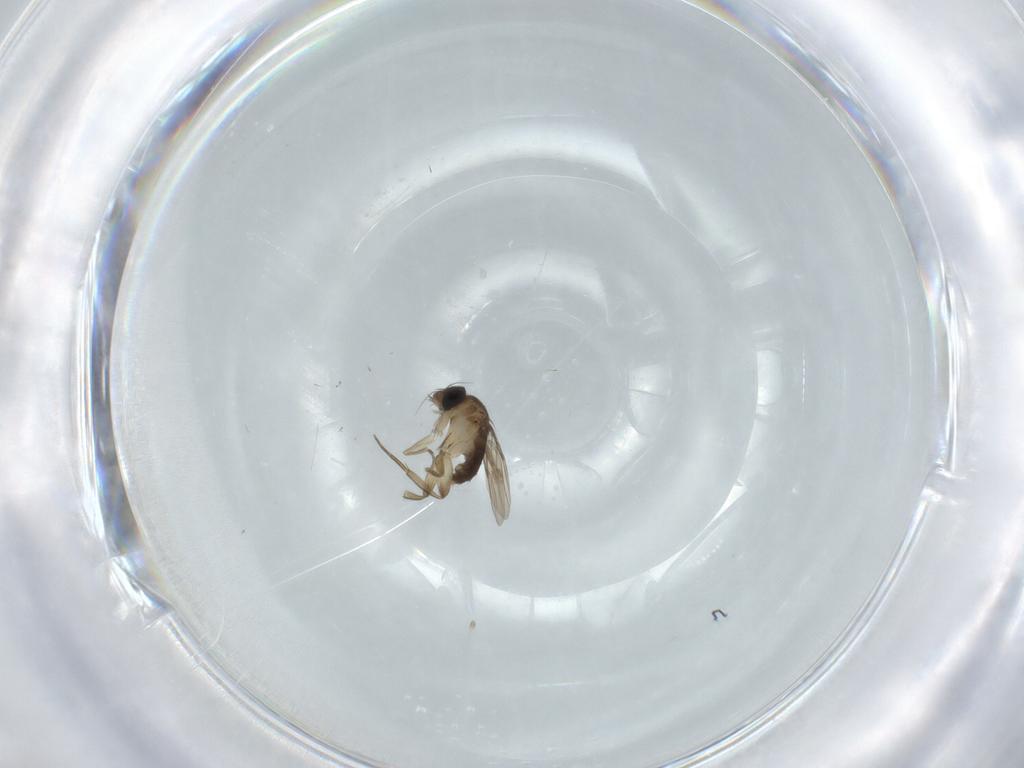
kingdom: Animalia
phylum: Arthropoda
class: Insecta
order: Diptera
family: Phoridae
